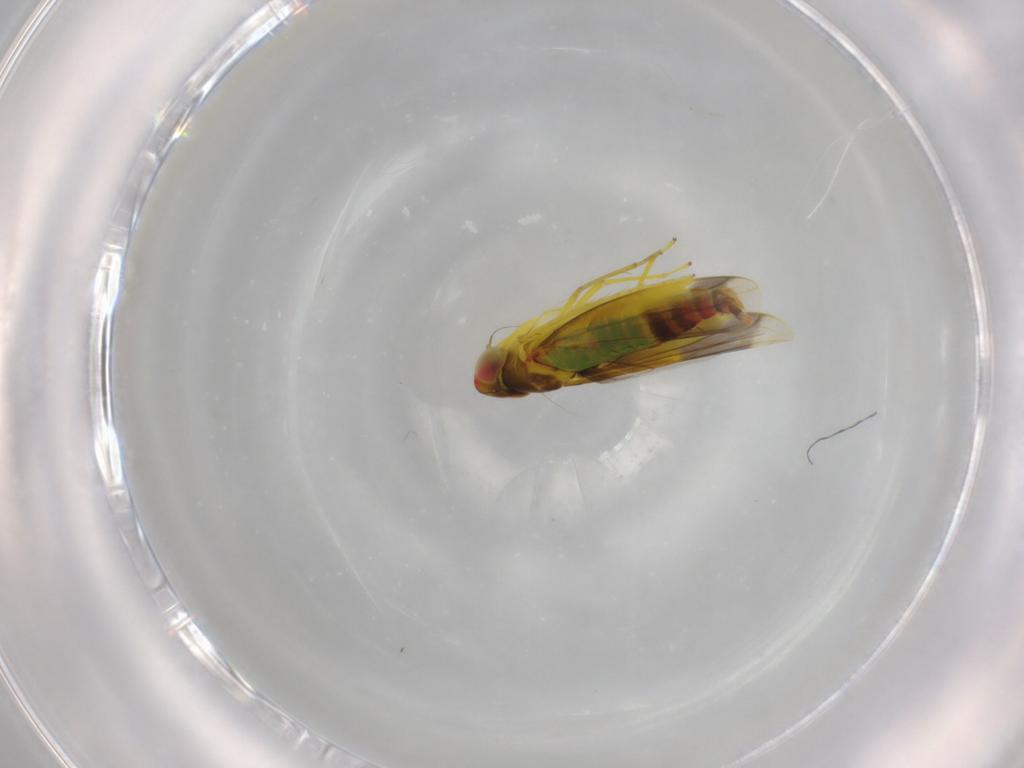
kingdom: Animalia
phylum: Arthropoda
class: Insecta
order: Hemiptera
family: Cicadellidae
